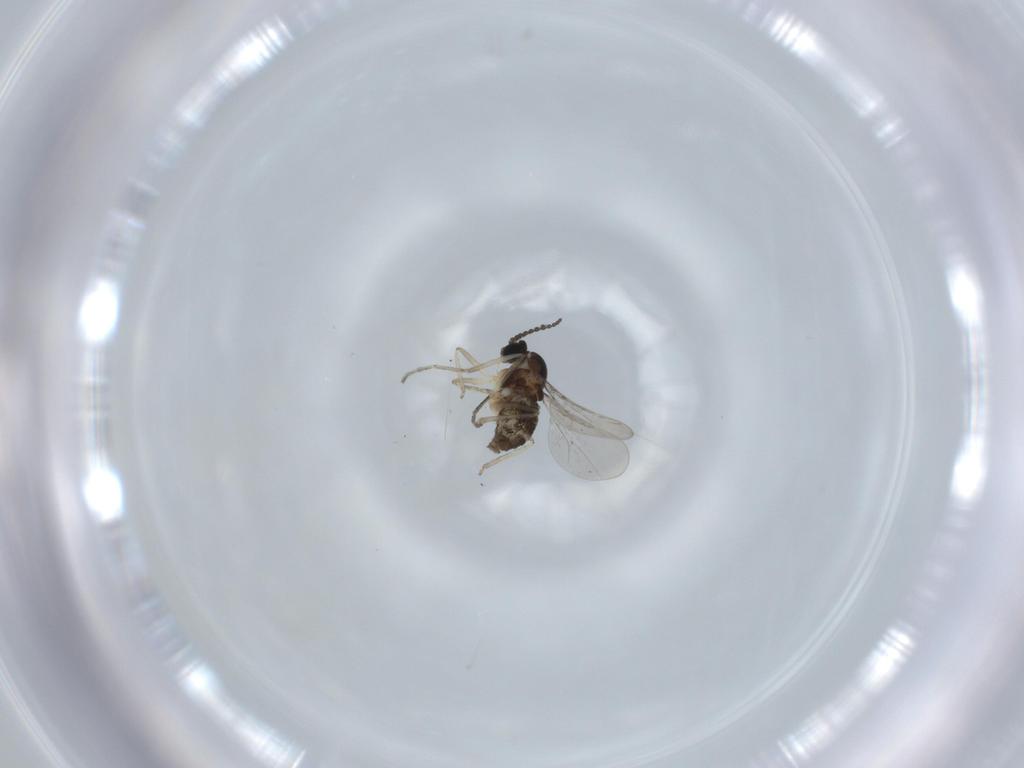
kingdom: Animalia
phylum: Arthropoda
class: Insecta
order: Diptera
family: Cecidomyiidae
